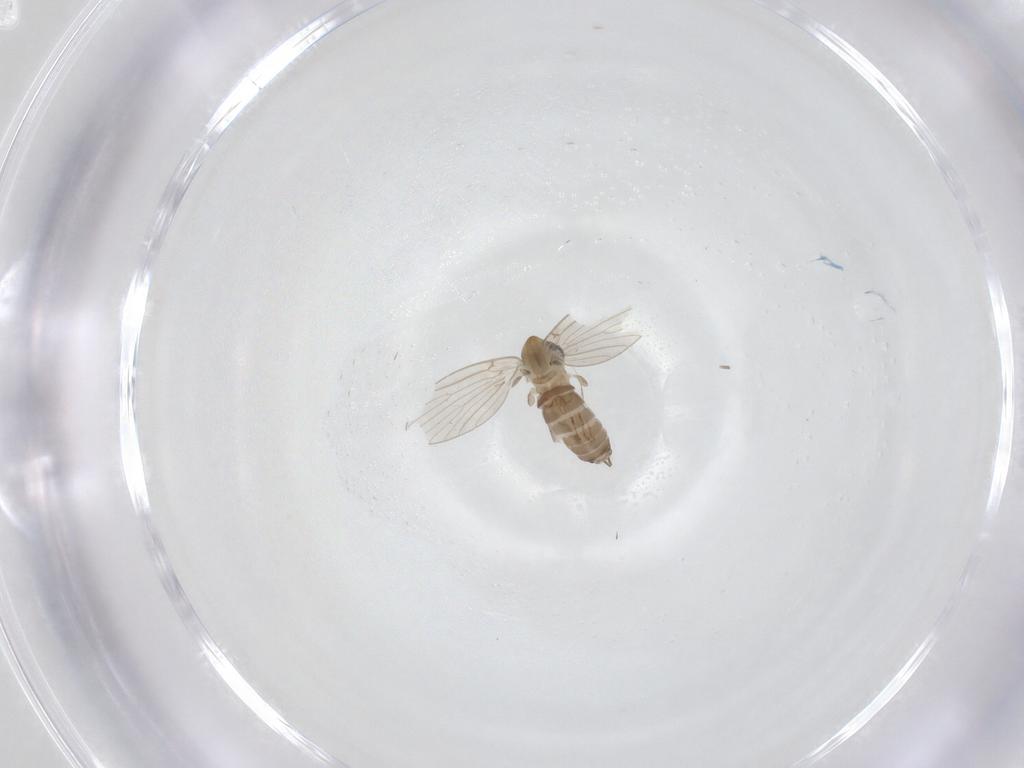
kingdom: Animalia
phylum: Arthropoda
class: Insecta
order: Diptera
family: Psychodidae
